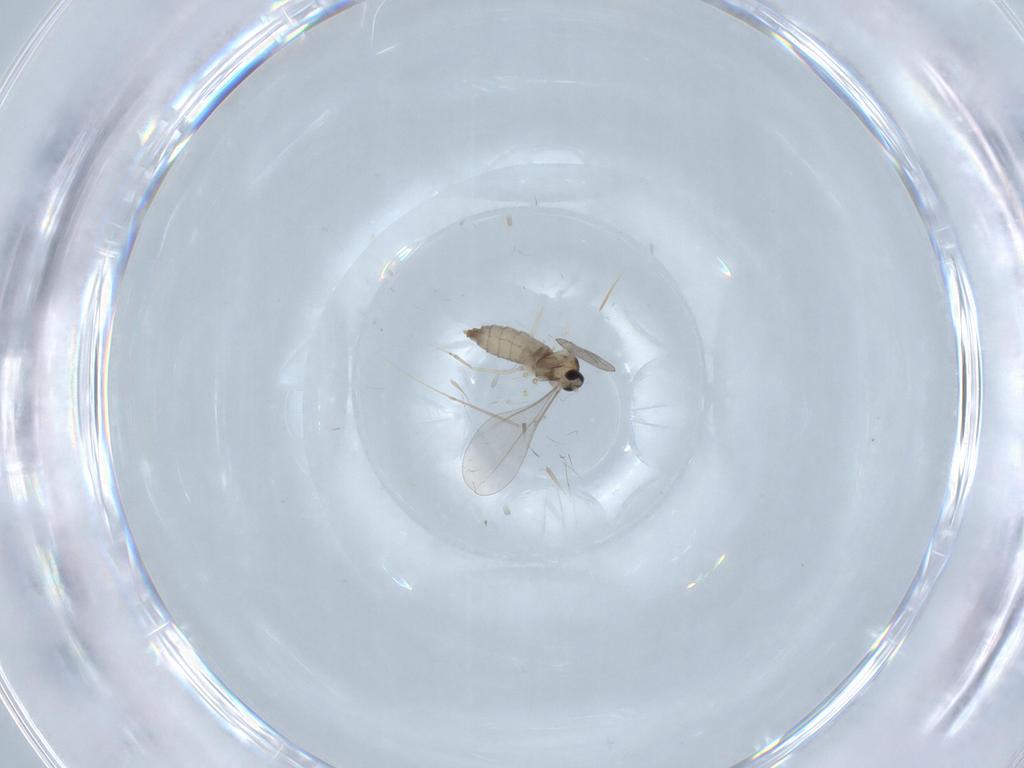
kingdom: Animalia
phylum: Arthropoda
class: Insecta
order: Diptera
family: Psychodidae
